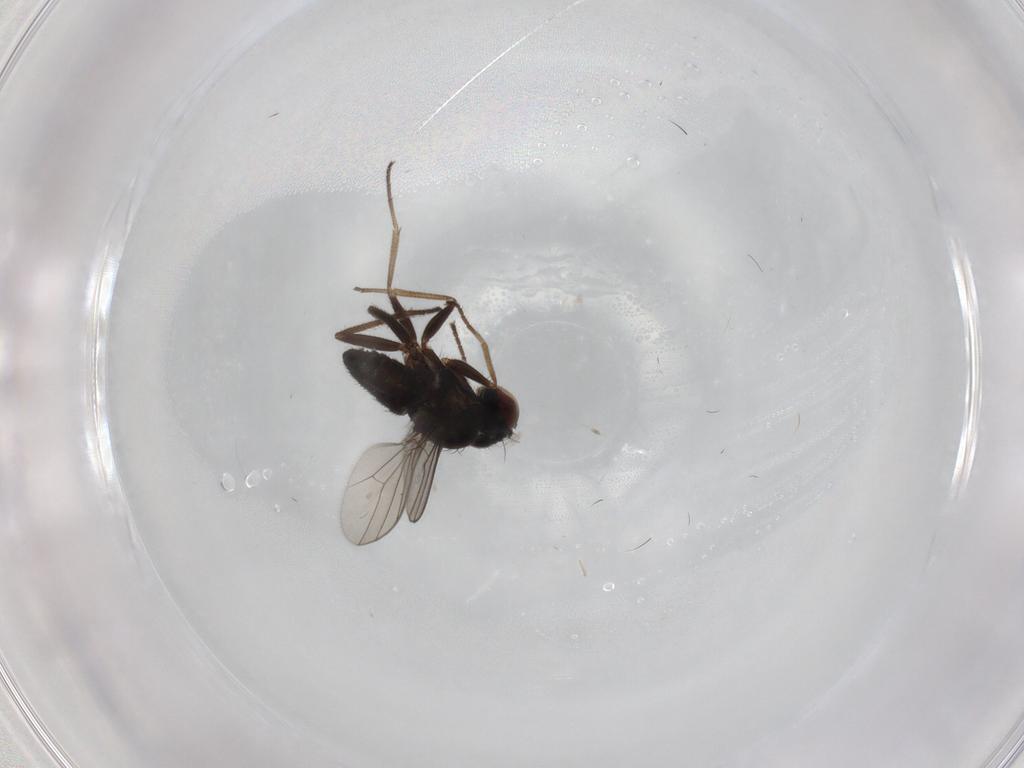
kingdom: Animalia
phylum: Arthropoda
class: Insecta
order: Diptera
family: Dolichopodidae
